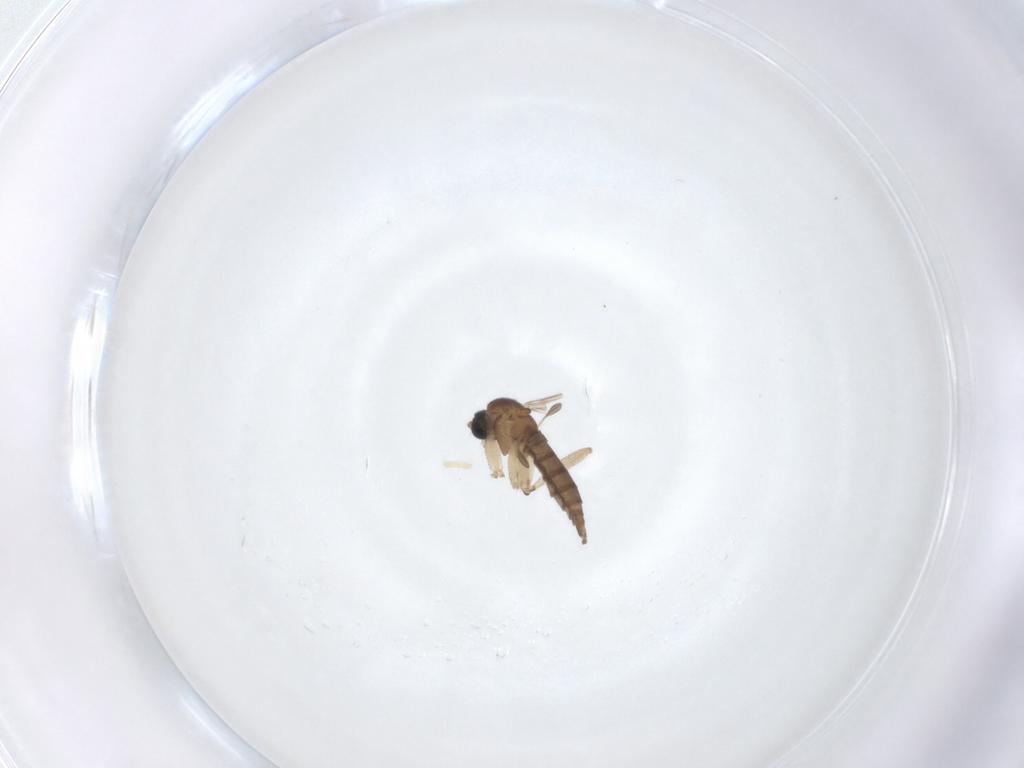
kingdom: Animalia
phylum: Arthropoda
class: Insecta
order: Diptera
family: Sciaridae
